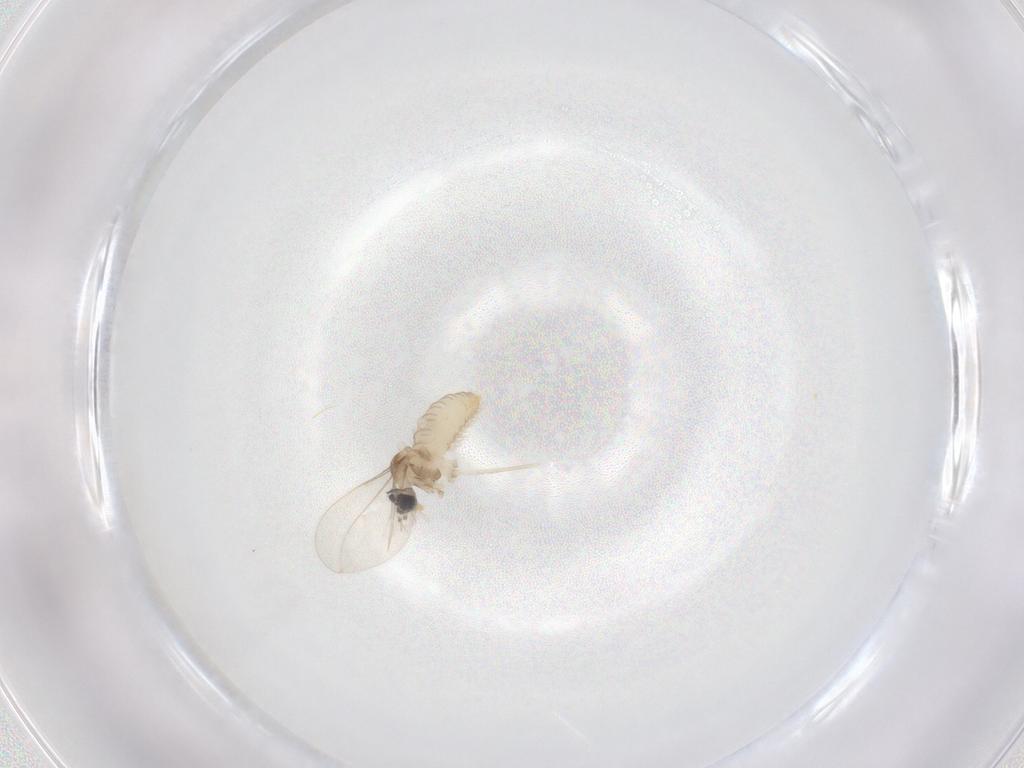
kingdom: Animalia
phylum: Arthropoda
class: Insecta
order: Diptera
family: Cecidomyiidae
